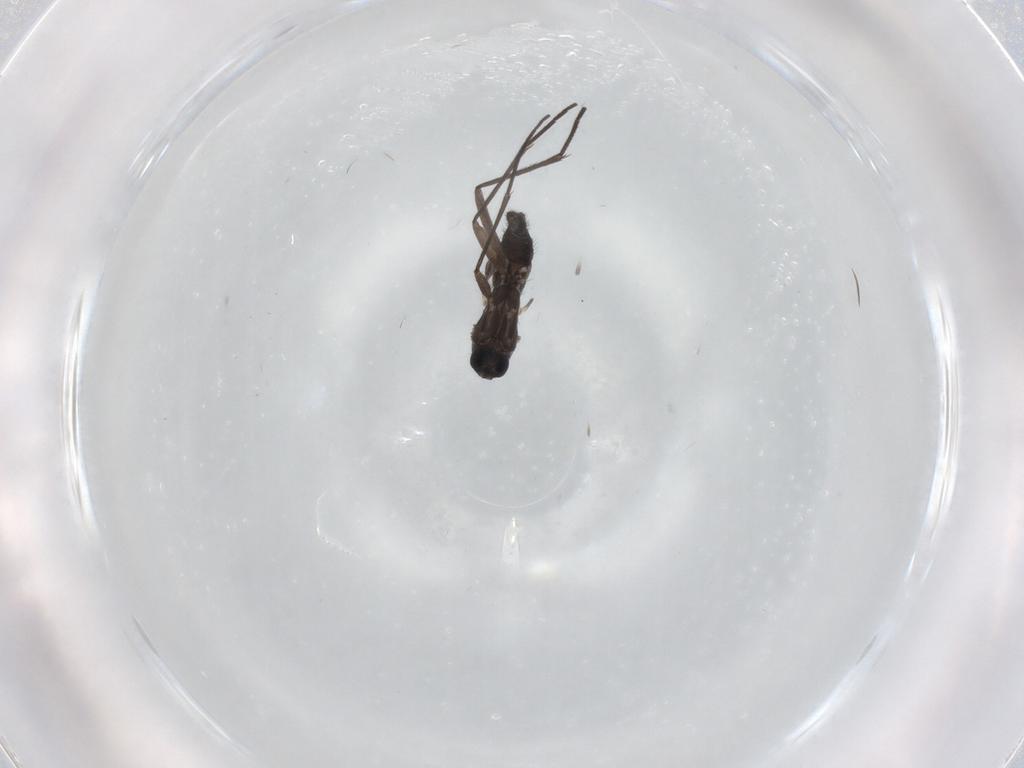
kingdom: Animalia
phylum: Arthropoda
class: Insecta
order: Diptera
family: Sciaridae
